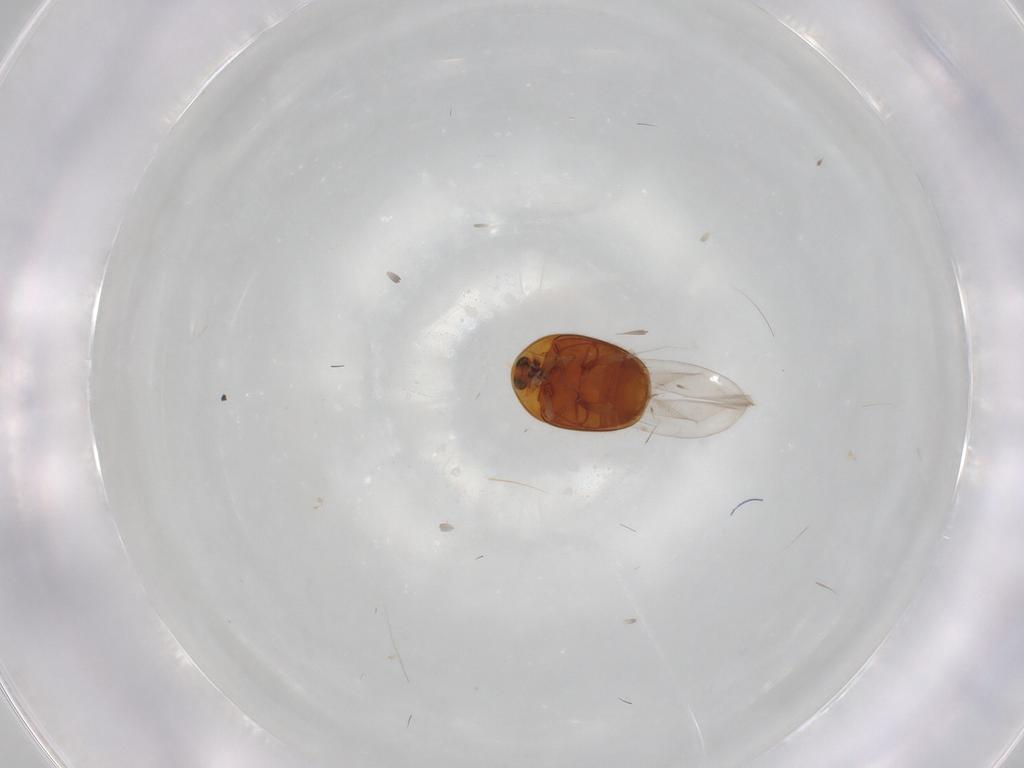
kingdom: Animalia
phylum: Arthropoda
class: Insecta
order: Coleoptera
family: Corylophidae
